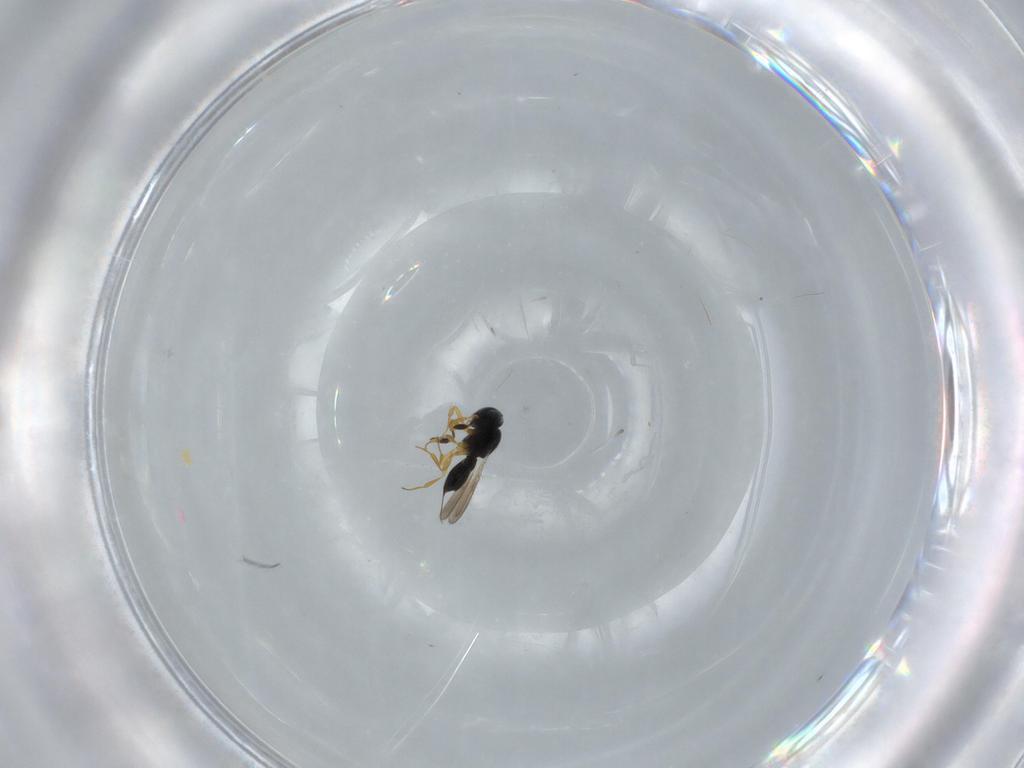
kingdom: Animalia
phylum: Arthropoda
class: Insecta
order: Hymenoptera
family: Scelionidae
